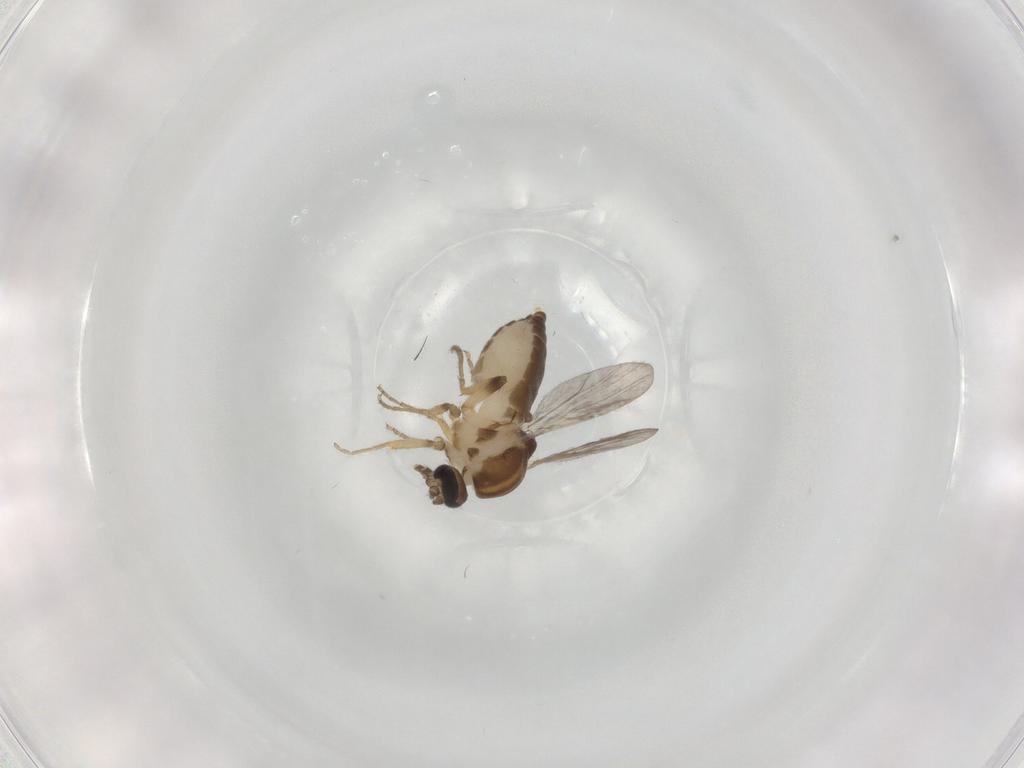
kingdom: Animalia
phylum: Arthropoda
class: Insecta
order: Diptera
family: Ceratopogonidae
